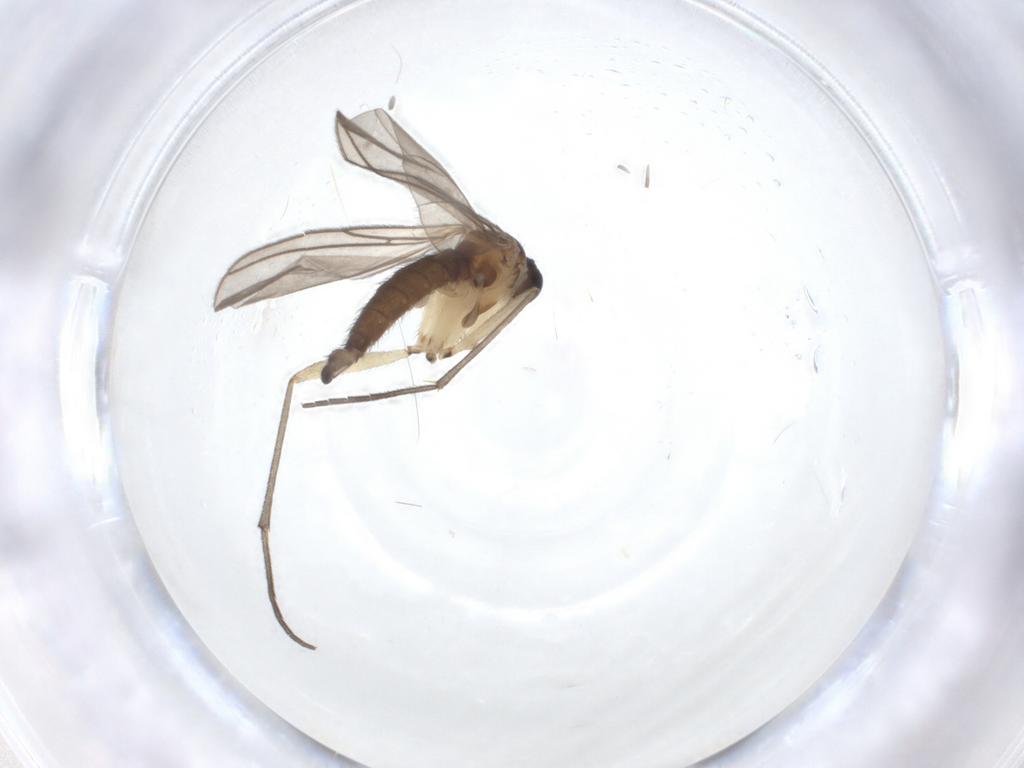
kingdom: Animalia
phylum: Arthropoda
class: Insecta
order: Diptera
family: Sciaridae
